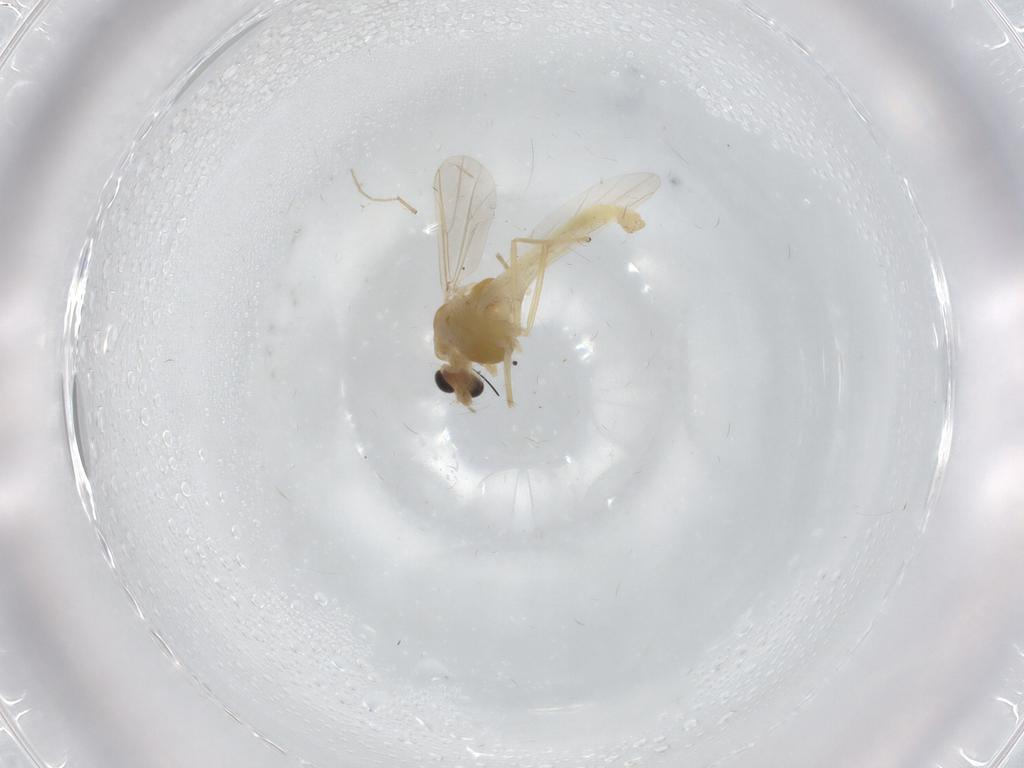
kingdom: Animalia
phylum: Arthropoda
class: Insecta
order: Diptera
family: Chironomidae
